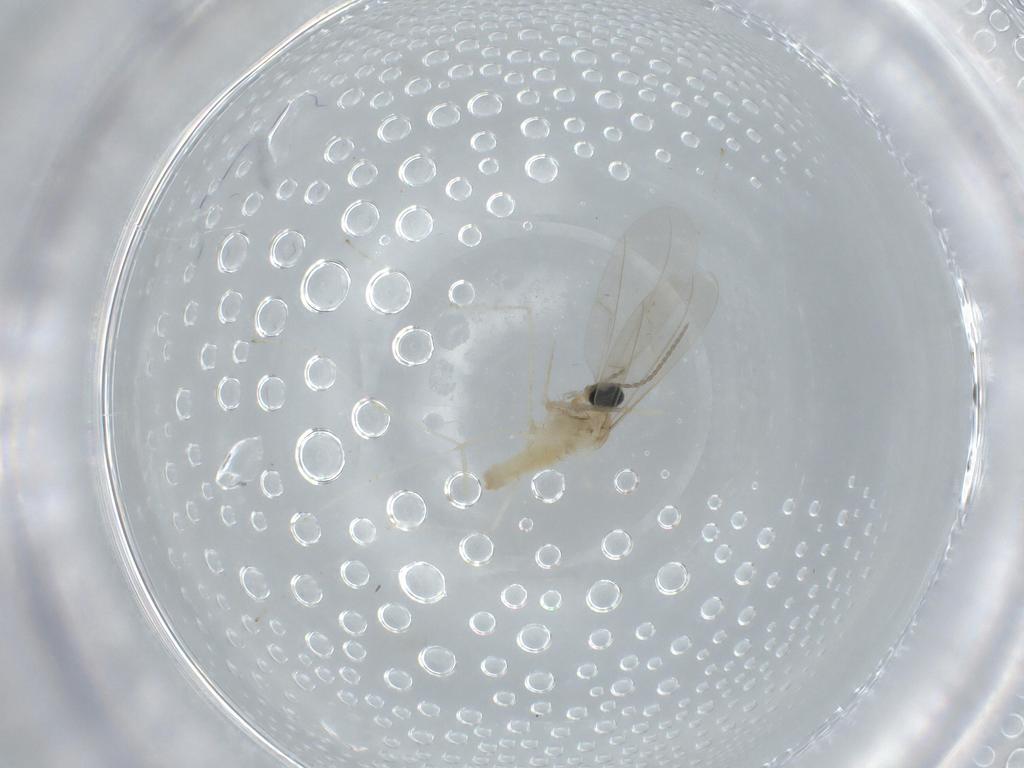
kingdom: Animalia
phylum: Arthropoda
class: Insecta
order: Diptera
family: Cecidomyiidae
